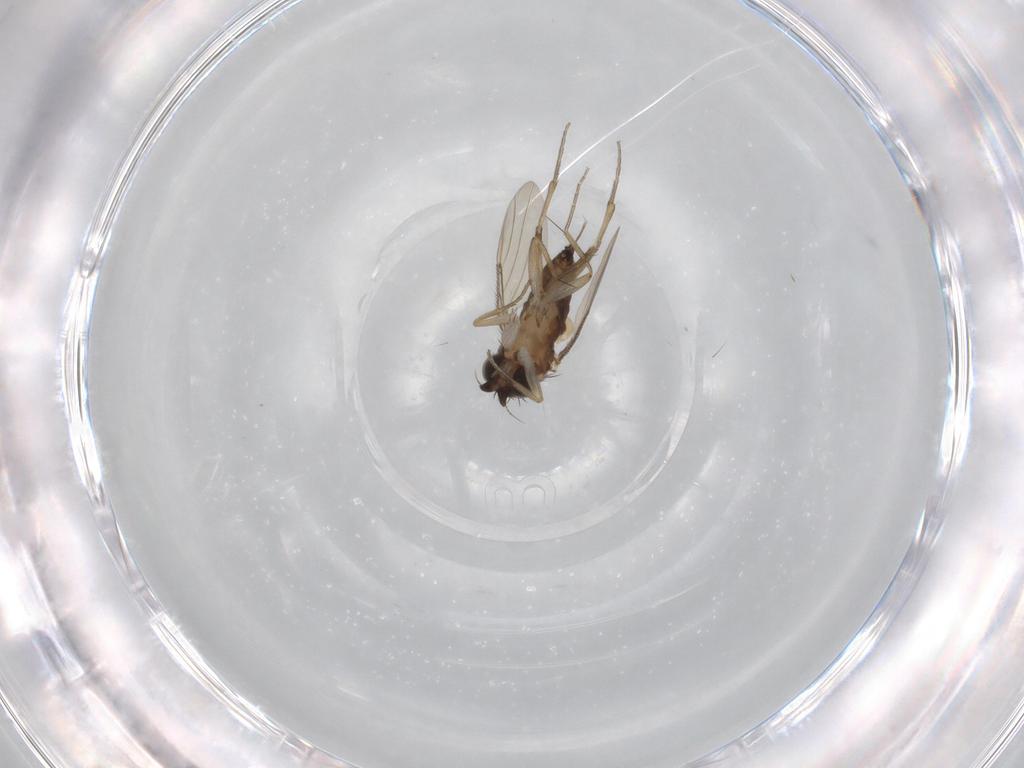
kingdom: Animalia
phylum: Arthropoda
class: Insecta
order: Diptera
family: Phoridae
